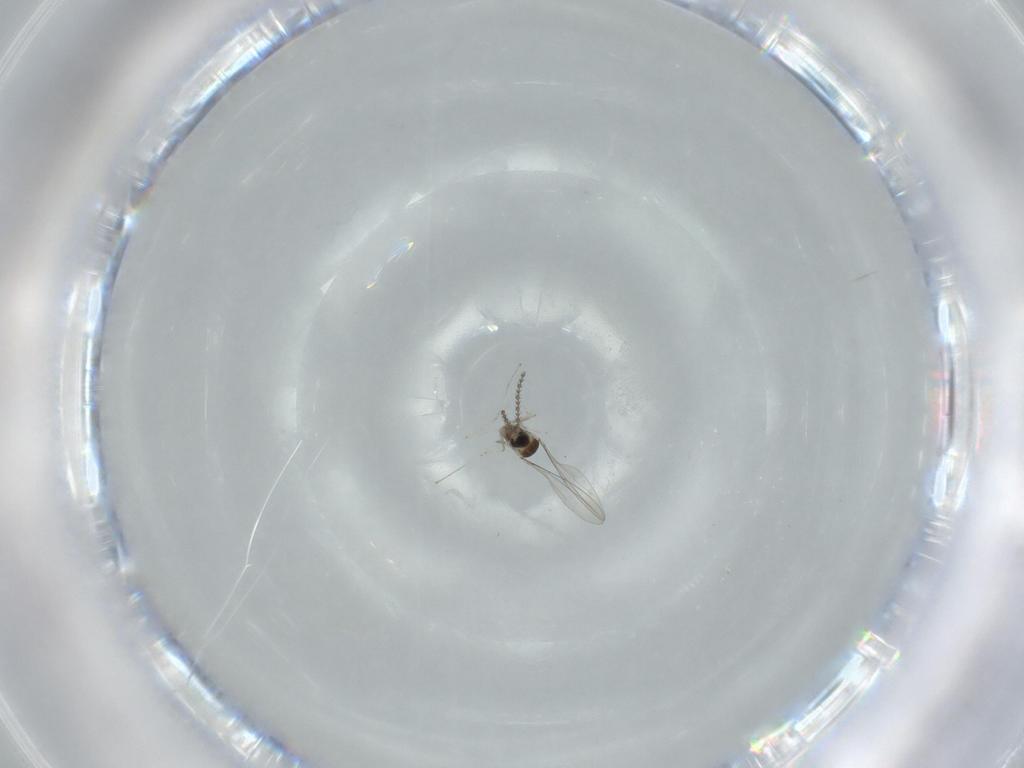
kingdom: Animalia
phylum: Arthropoda
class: Insecta
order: Diptera
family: Cecidomyiidae
